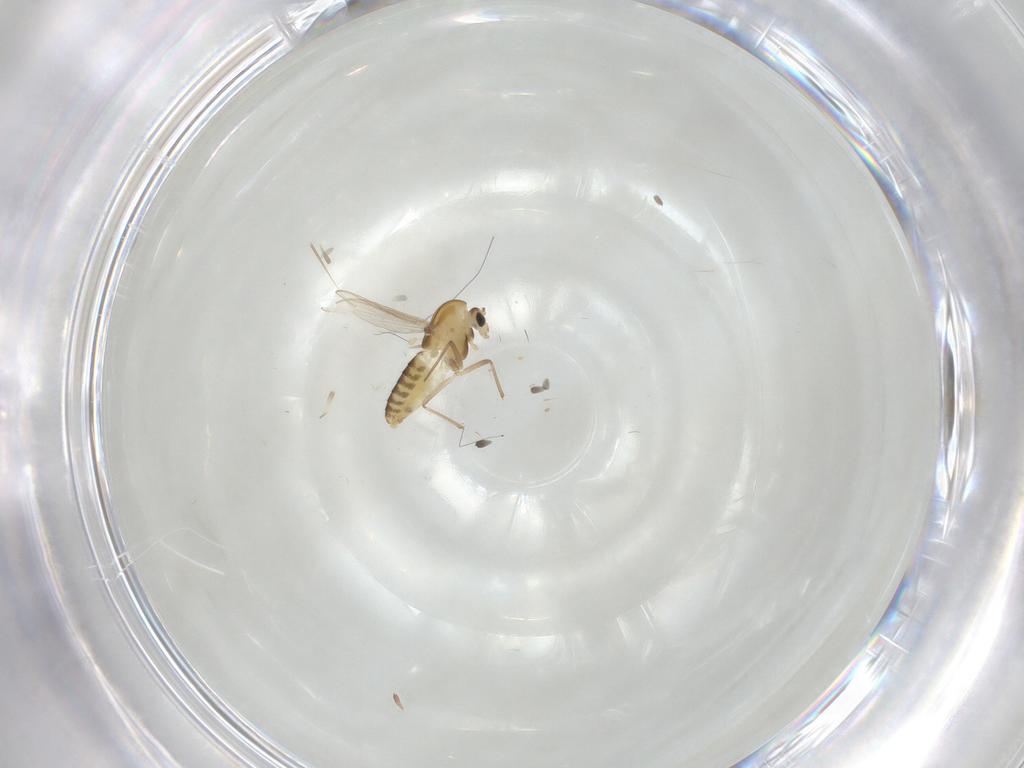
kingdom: Animalia
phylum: Arthropoda
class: Insecta
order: Diptera
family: Chironomidae
